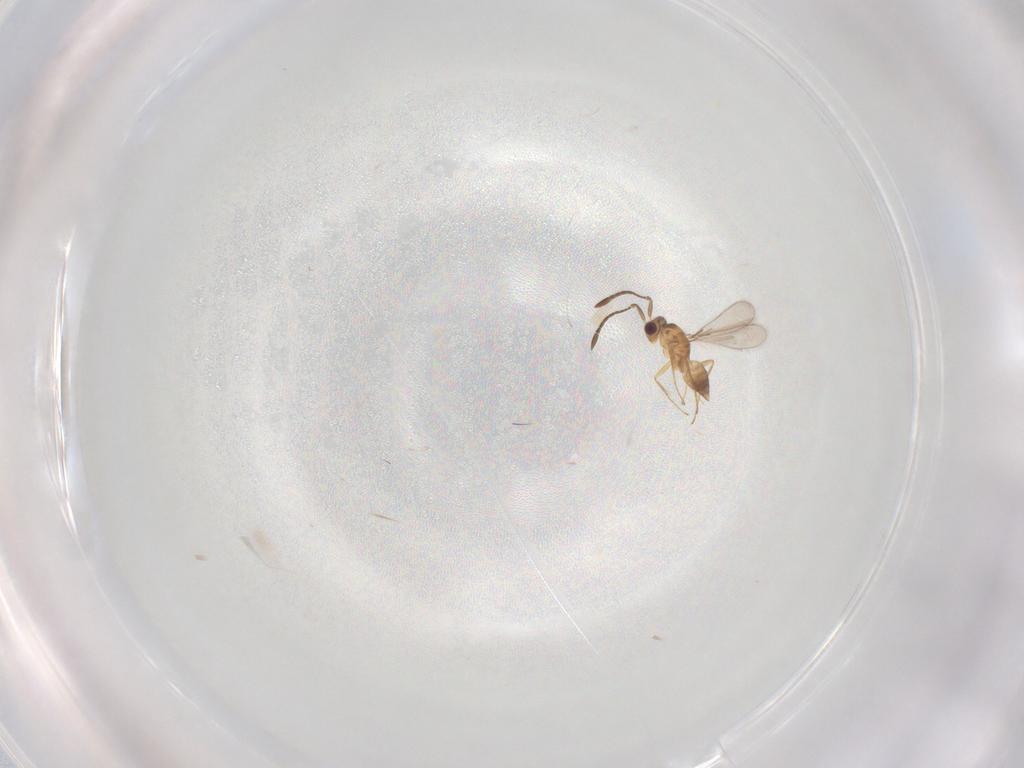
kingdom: Animalia
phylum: Arthropoda
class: Insecta
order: Hymenoptera
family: Mymaridae
